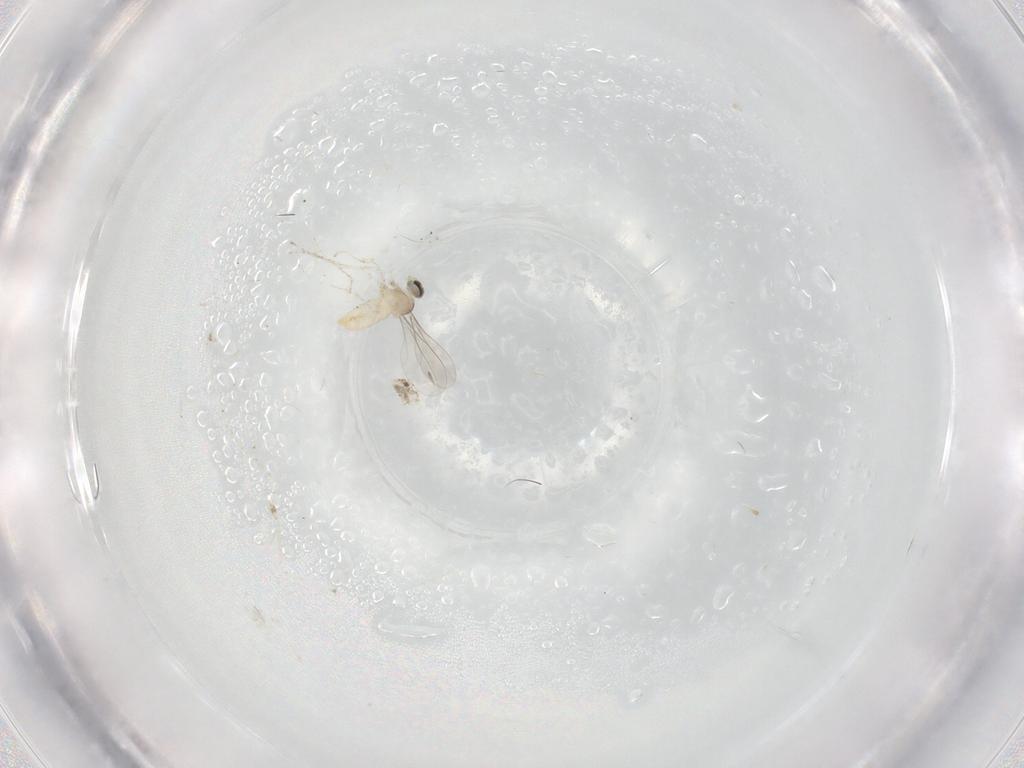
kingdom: Animalia
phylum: Arthropoda
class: Insecta
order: Diptera
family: Cecidomyiidae
